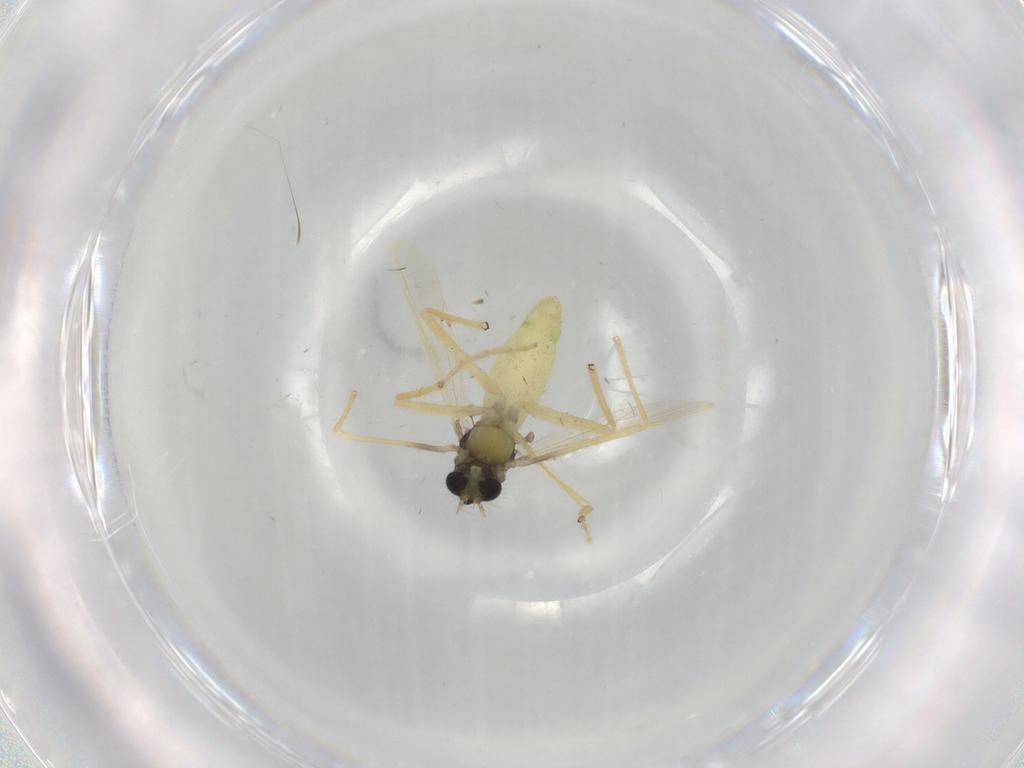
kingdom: Animalia
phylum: Arthropoda
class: Insecta
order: Diptera
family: Chironomidae
